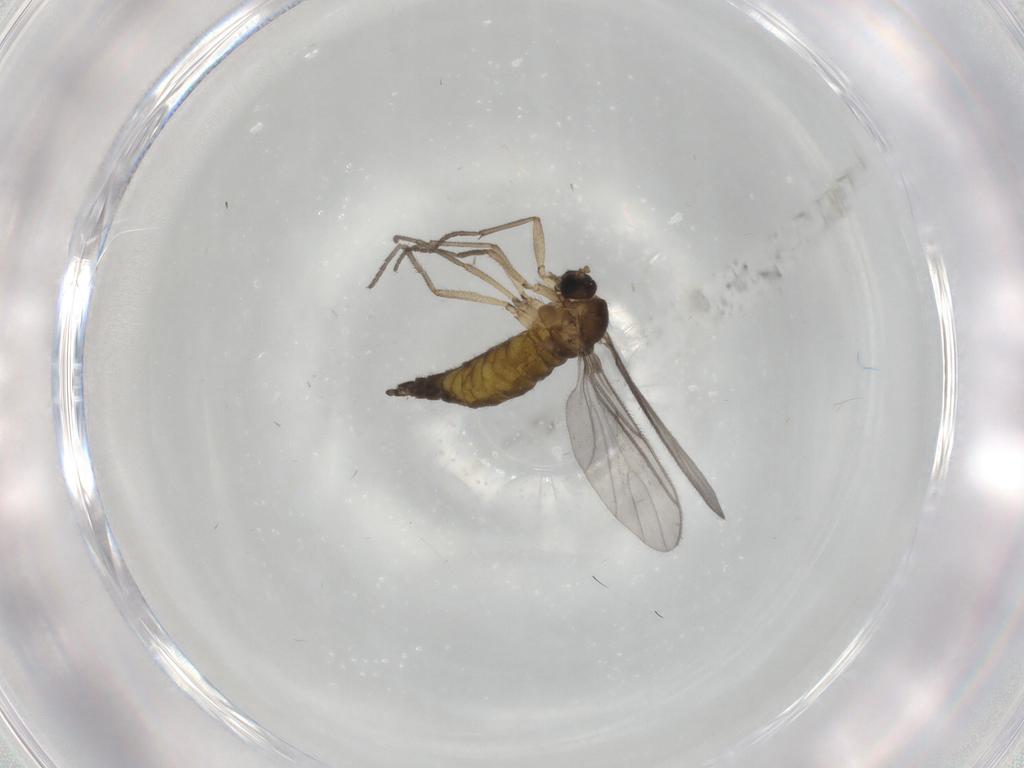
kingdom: Animalia
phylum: Arthropoda
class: Insecta
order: Diptera
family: Limoniidae
